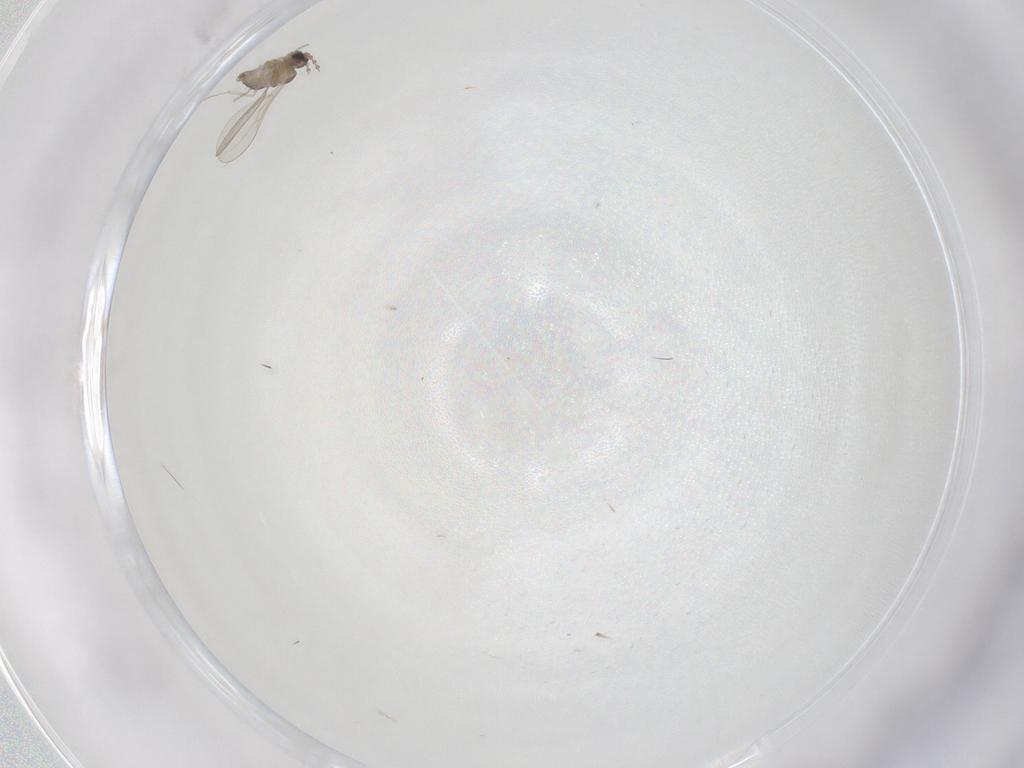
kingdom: Animalia
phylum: Arthropoda
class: Insecta
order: Diptera
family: Cecidomyiidae
